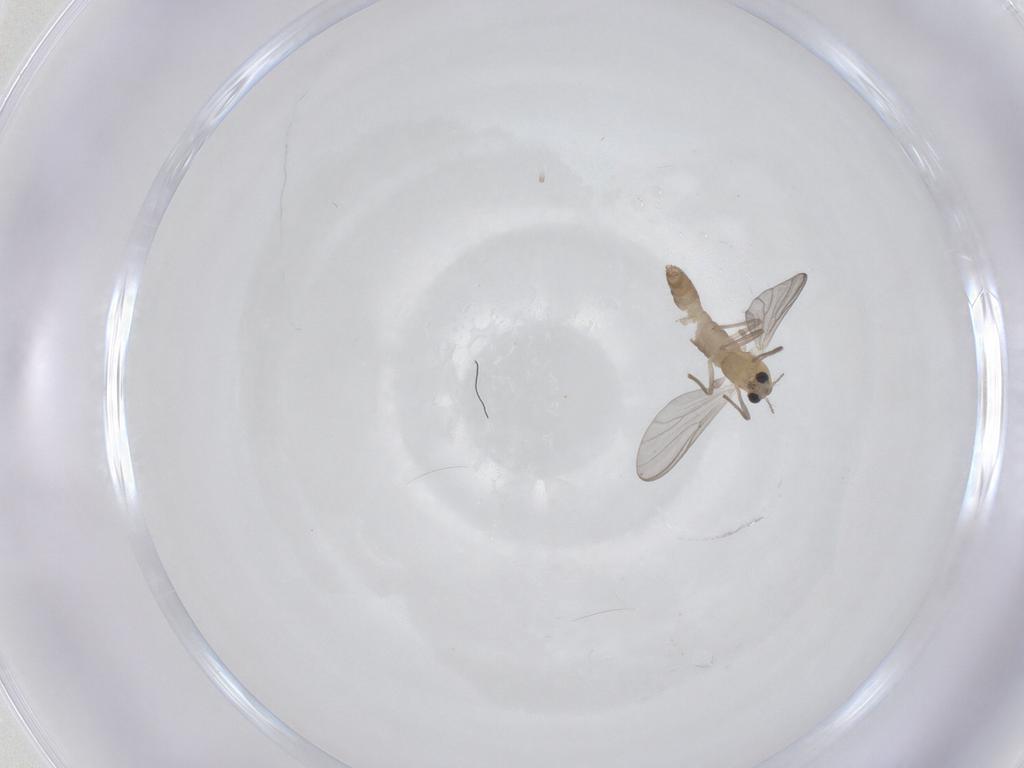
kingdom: Animalia
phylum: Arthropoda
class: Insecta
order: Diptera
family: Chironomidae
